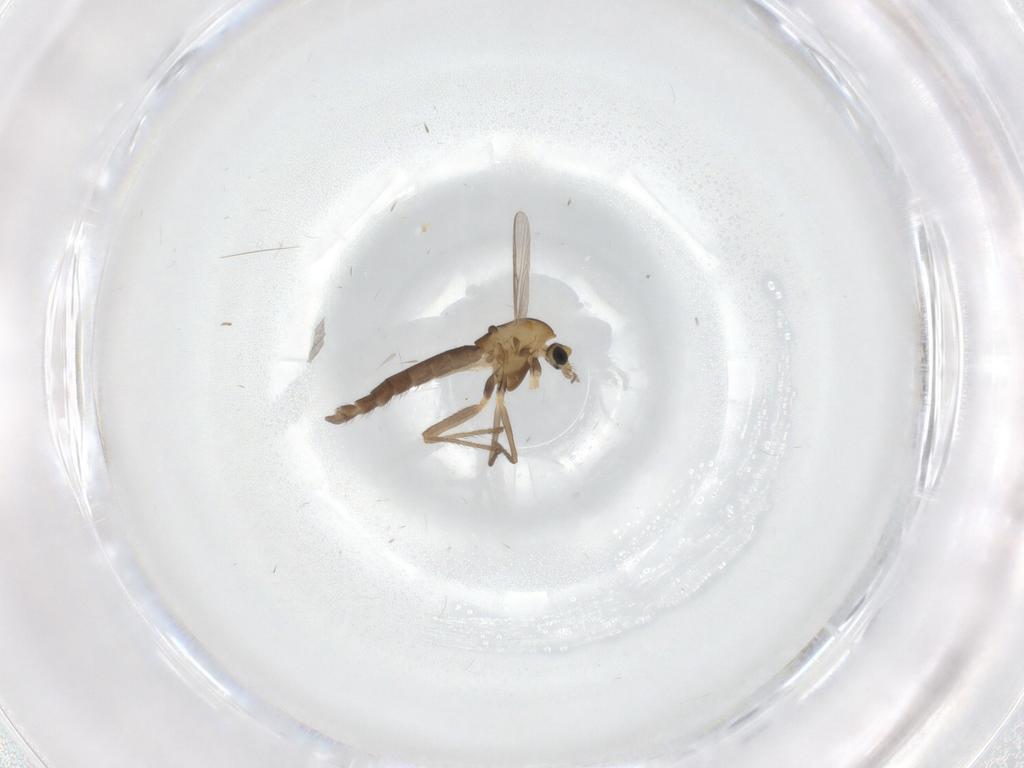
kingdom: Animalia
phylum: Arthropoda
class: Insecta
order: Diptera
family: Chironomidae
